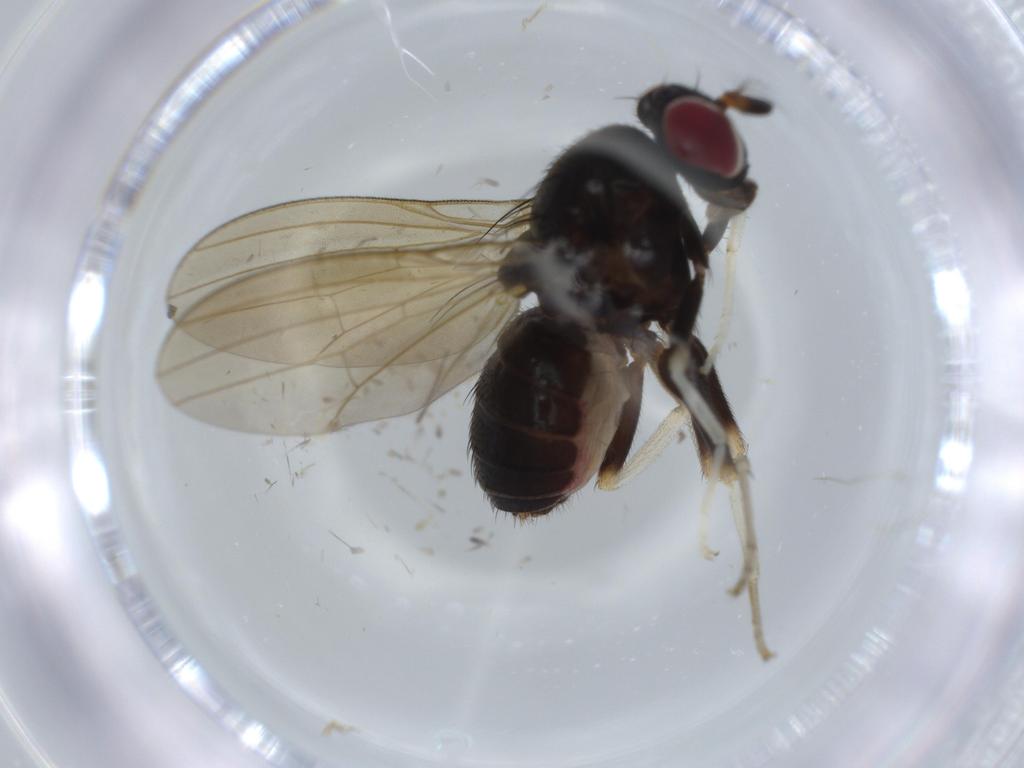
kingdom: Animalia
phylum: Arthropoda
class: Insecta
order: Diptera
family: Asilidae
